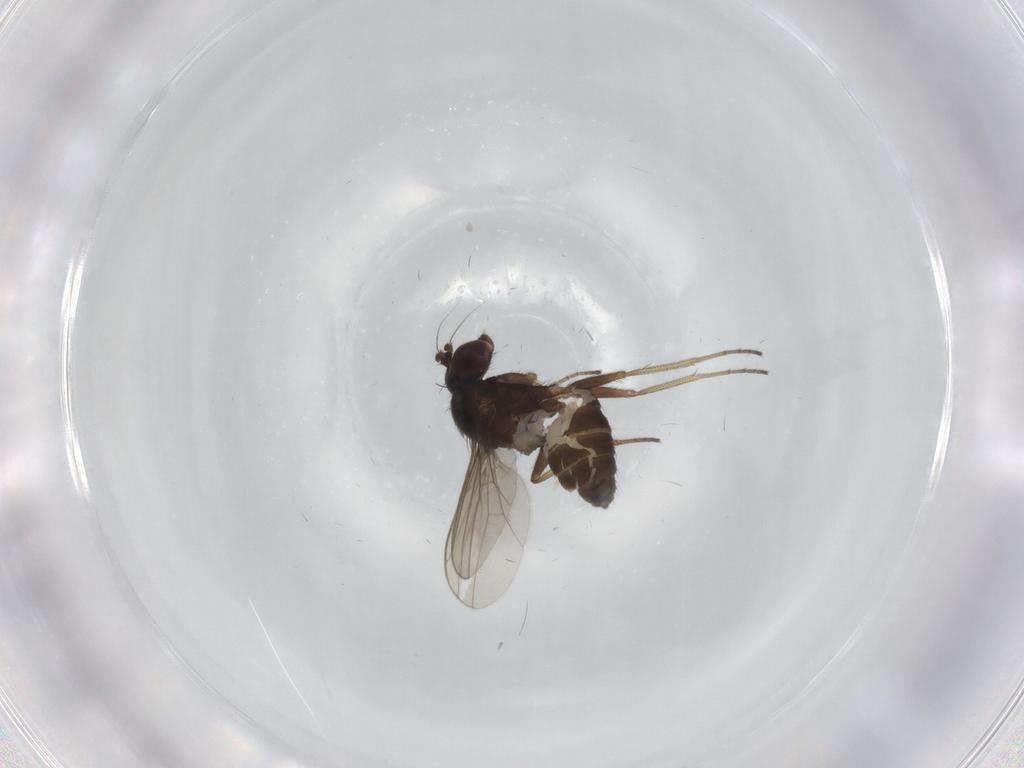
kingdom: Animalia
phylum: Arthropoda
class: Insecta
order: Diptera
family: Dolichopodidae
